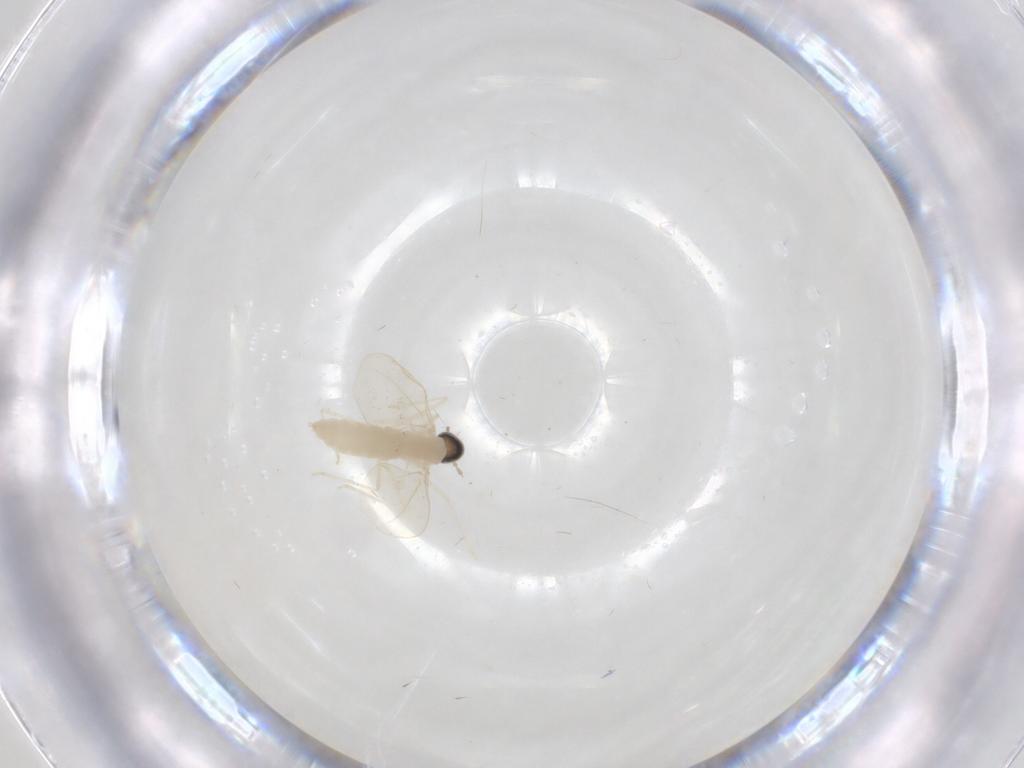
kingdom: Animalia
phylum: Arthropoda
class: Insecta
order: Diptera
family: Cecidomyiidae
